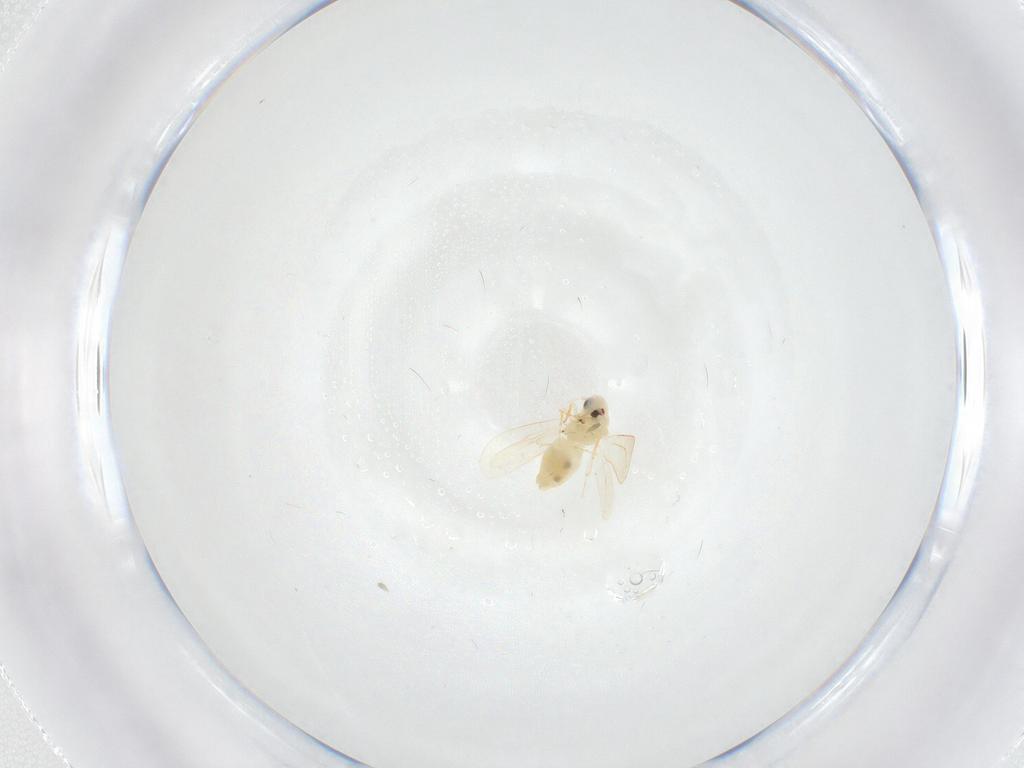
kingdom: Animalia
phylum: Arthropoda
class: Insecta
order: Hemiptera
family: Aleyrodidae
